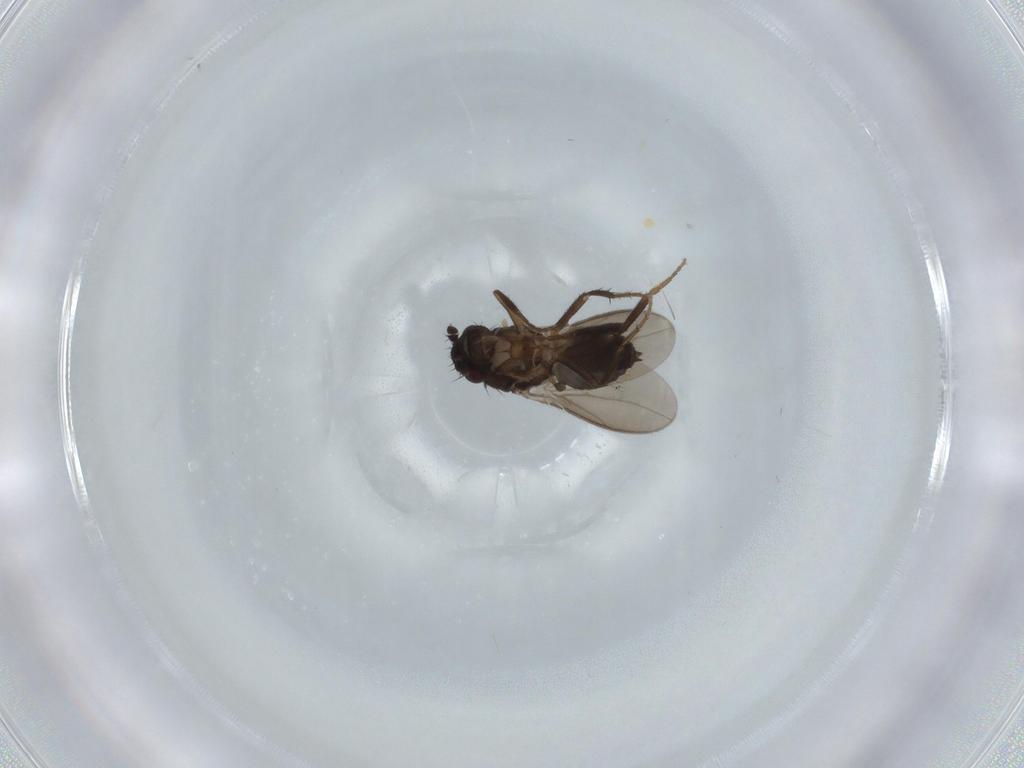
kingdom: Animalia
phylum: Arthropoda
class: Insecta
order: Diptera
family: Sphaeroceridae
